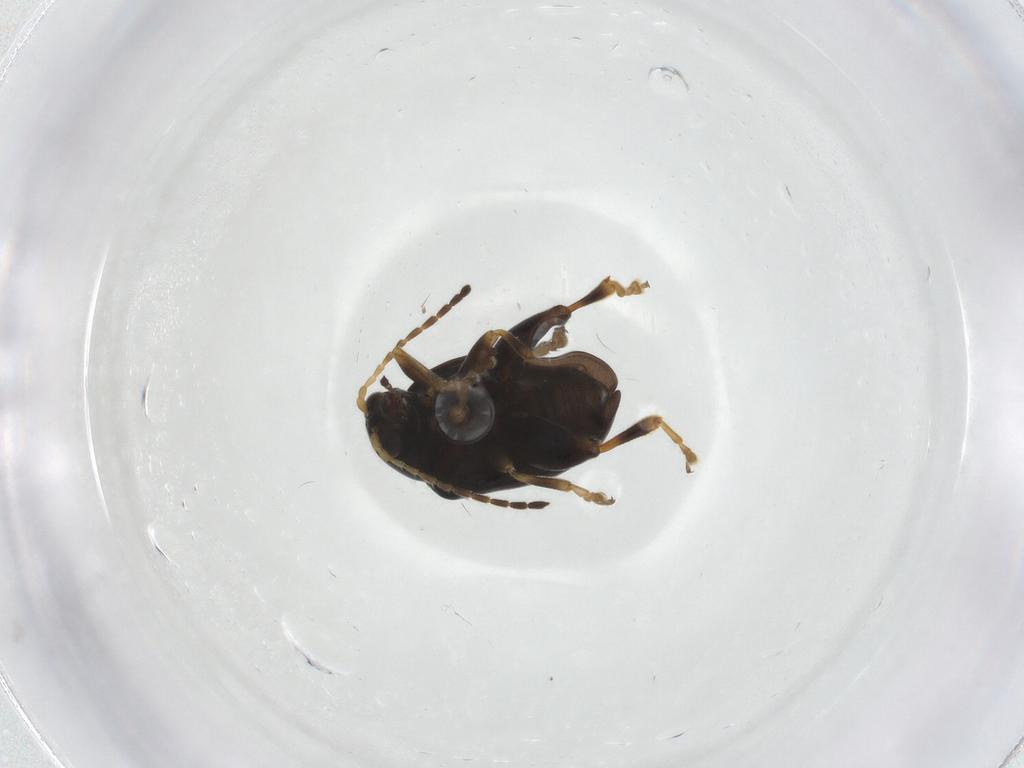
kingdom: Animalia
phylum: Arthropoda
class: Insecta
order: Coleoptera
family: Chrysomelidae
